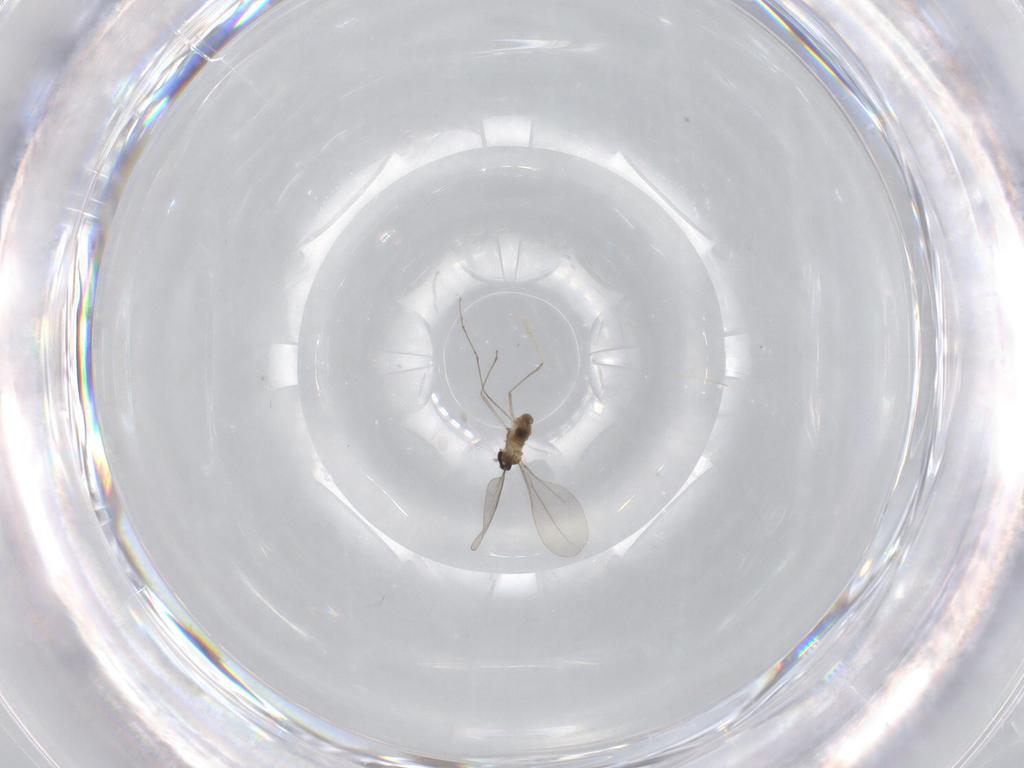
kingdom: Animalia
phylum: Arthropoda
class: Insecta
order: Diptera
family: Cecidomyiidae
